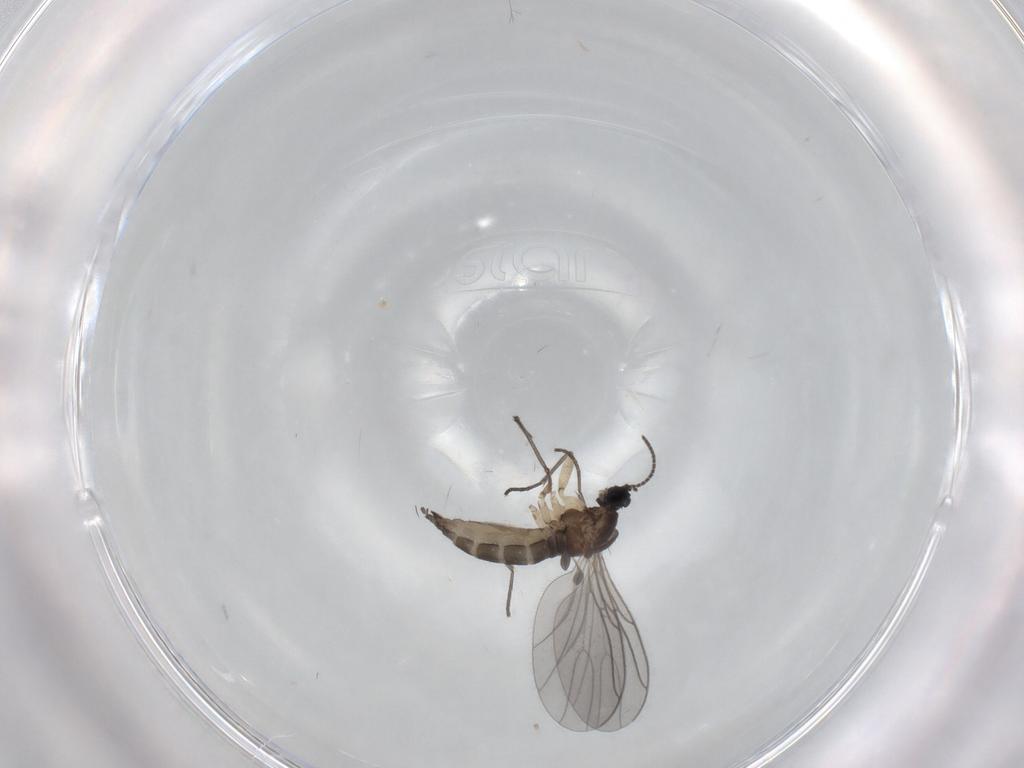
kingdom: Animalia
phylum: Arthropoda
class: Insecta
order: Diptera
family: Sciaridae
